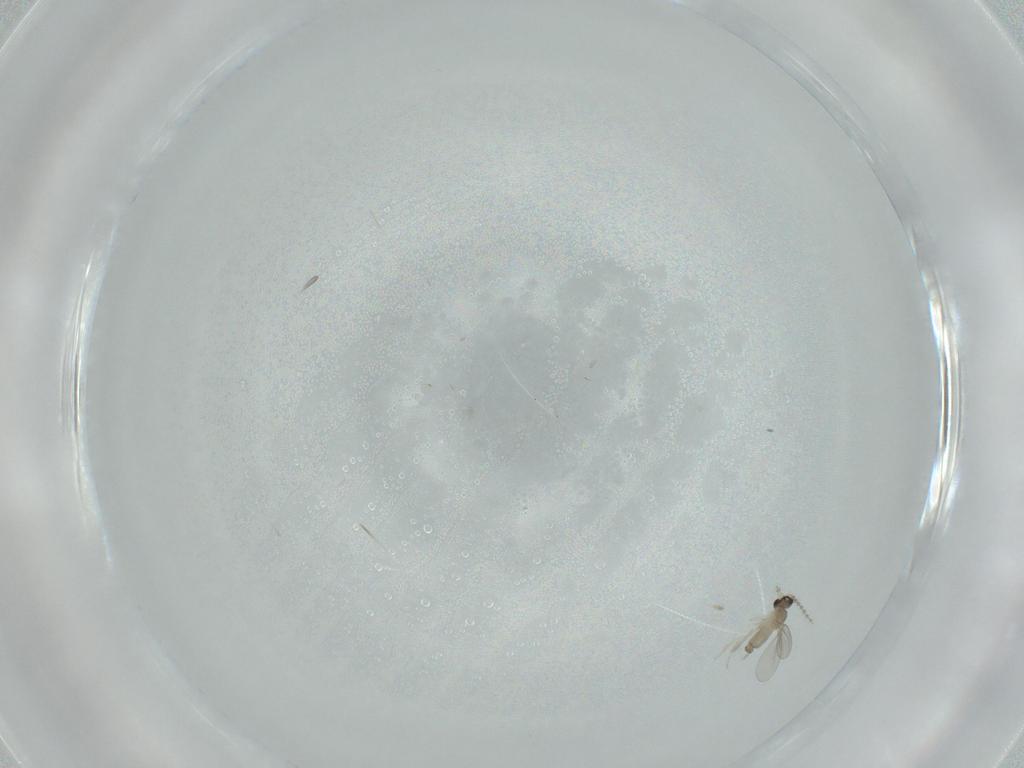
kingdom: Animalia
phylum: Arthropoda
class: Insecta
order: Diptera
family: Cecidomyiidae
